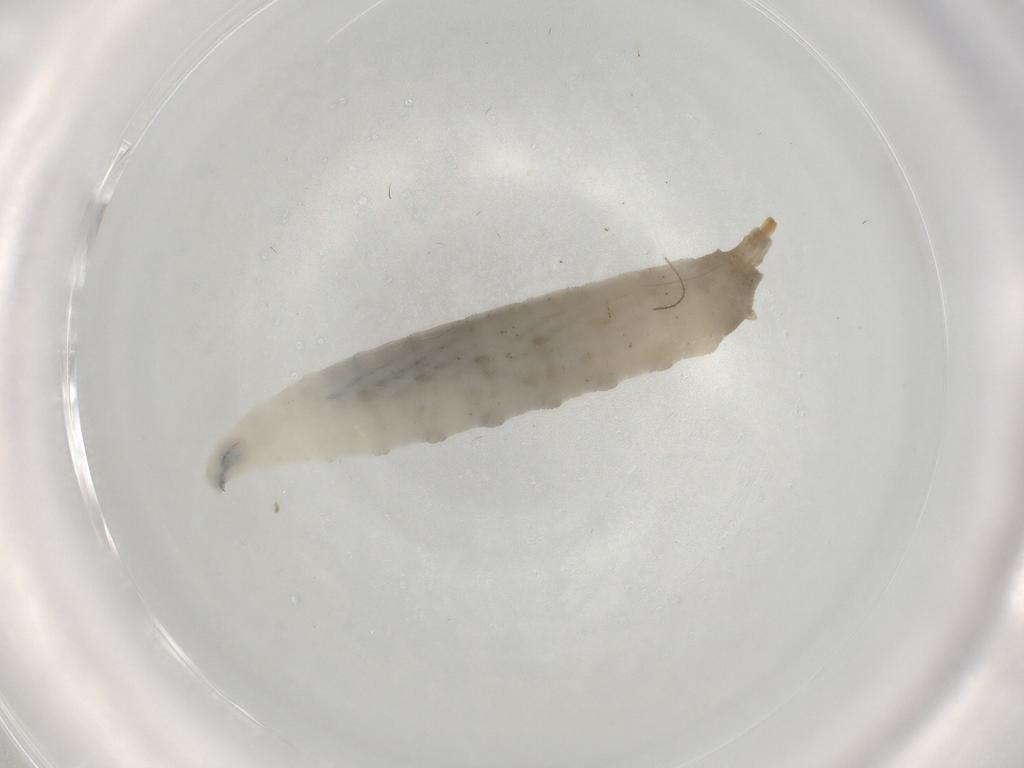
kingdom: Animalia
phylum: Arthropoda
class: Insecta
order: Diptera
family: Drosophilidae
